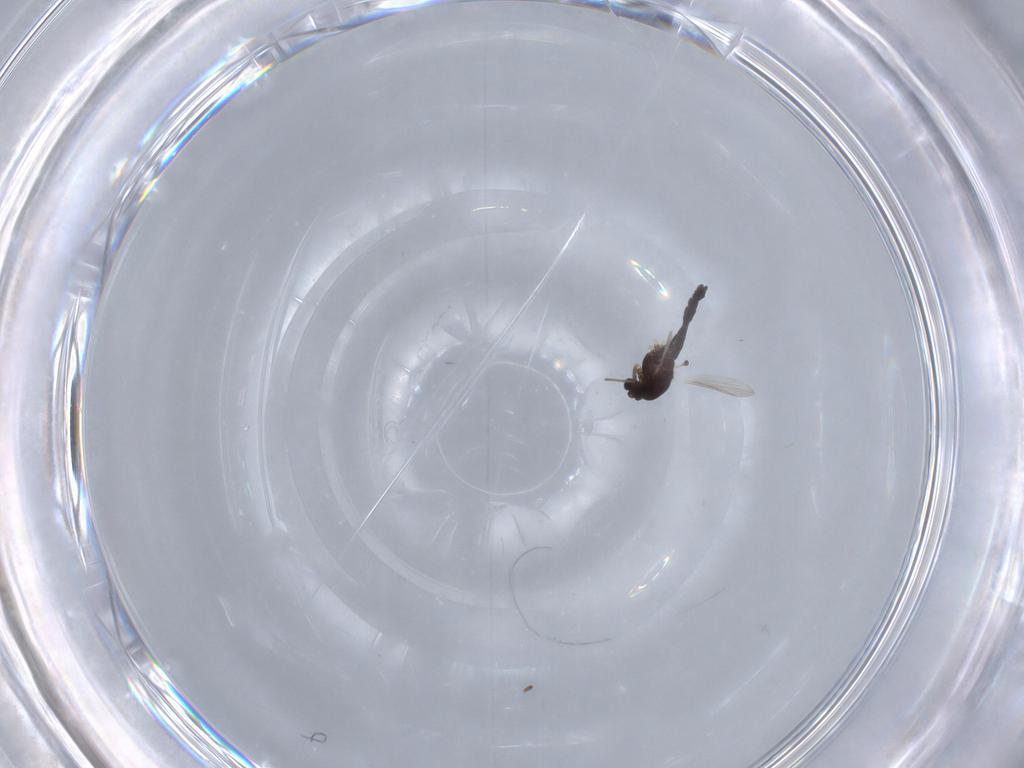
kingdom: Animalia
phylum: Arthropoda
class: Insecta
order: Diptera
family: Chironomidae
